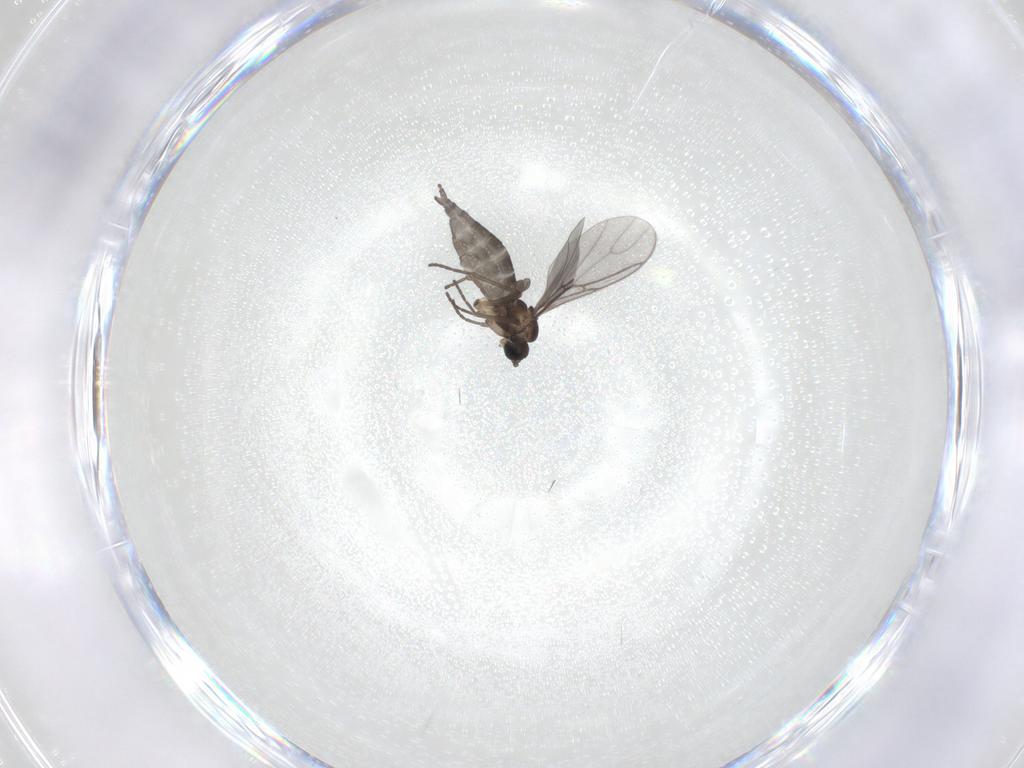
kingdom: Animalia
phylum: Arthropoda
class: Insecta
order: Diptera
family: Sciaridae
